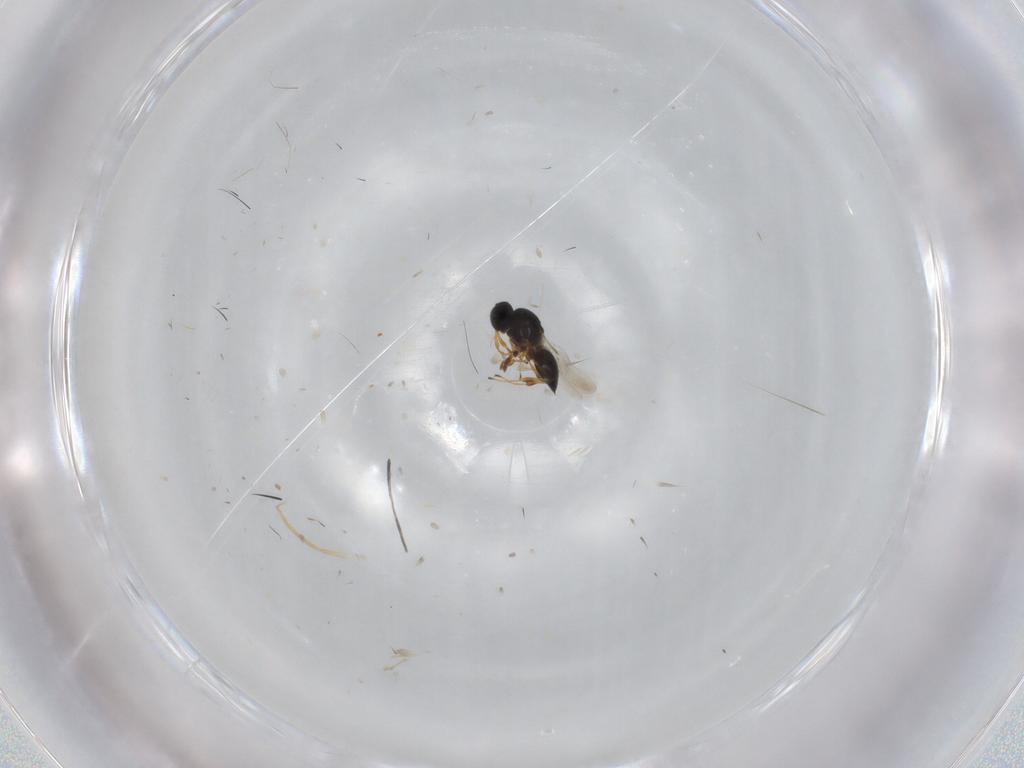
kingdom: Animalia
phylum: Arthropoda
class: Insecta
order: Hymenoptera
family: Platygastridae
